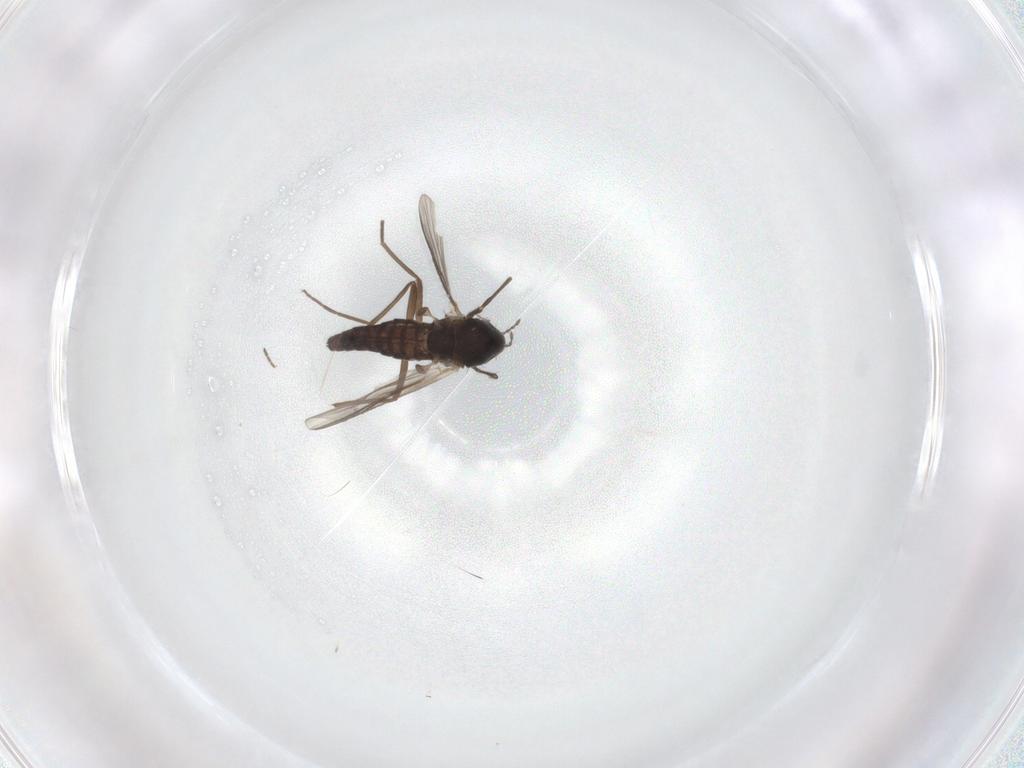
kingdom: Animalia
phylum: Arthropoda
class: Insecta
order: Diptera
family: Chironomidae
